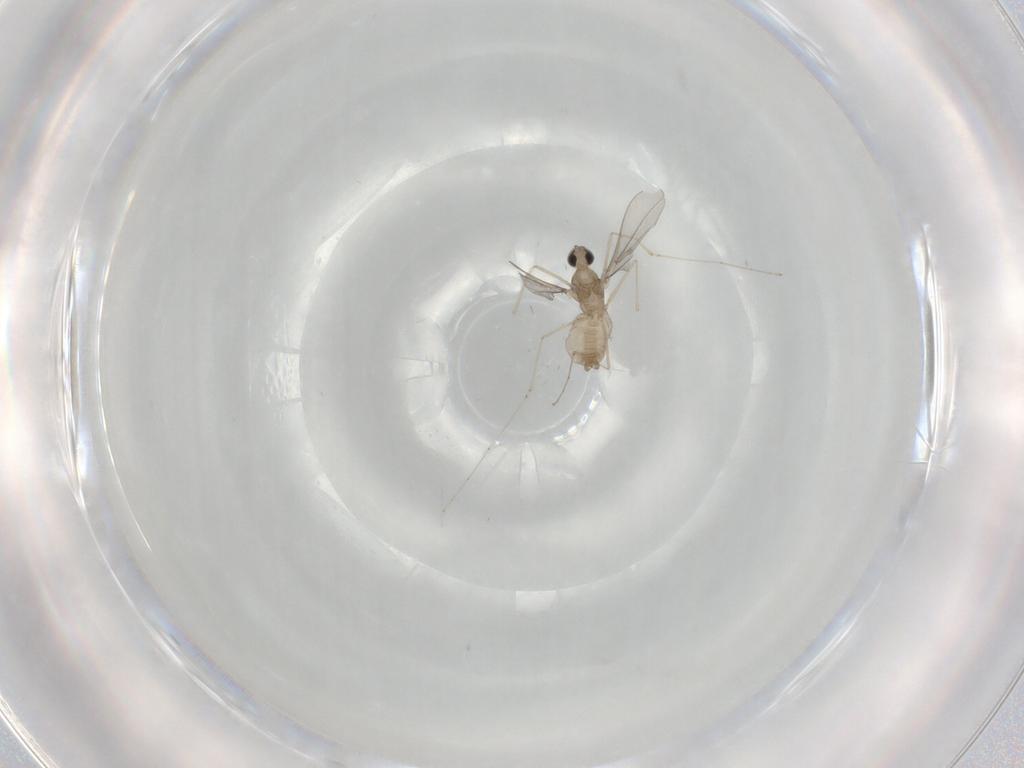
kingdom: Animalia
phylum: Arthropoda
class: Insecta
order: Diptera
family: Cecidomyiidae
